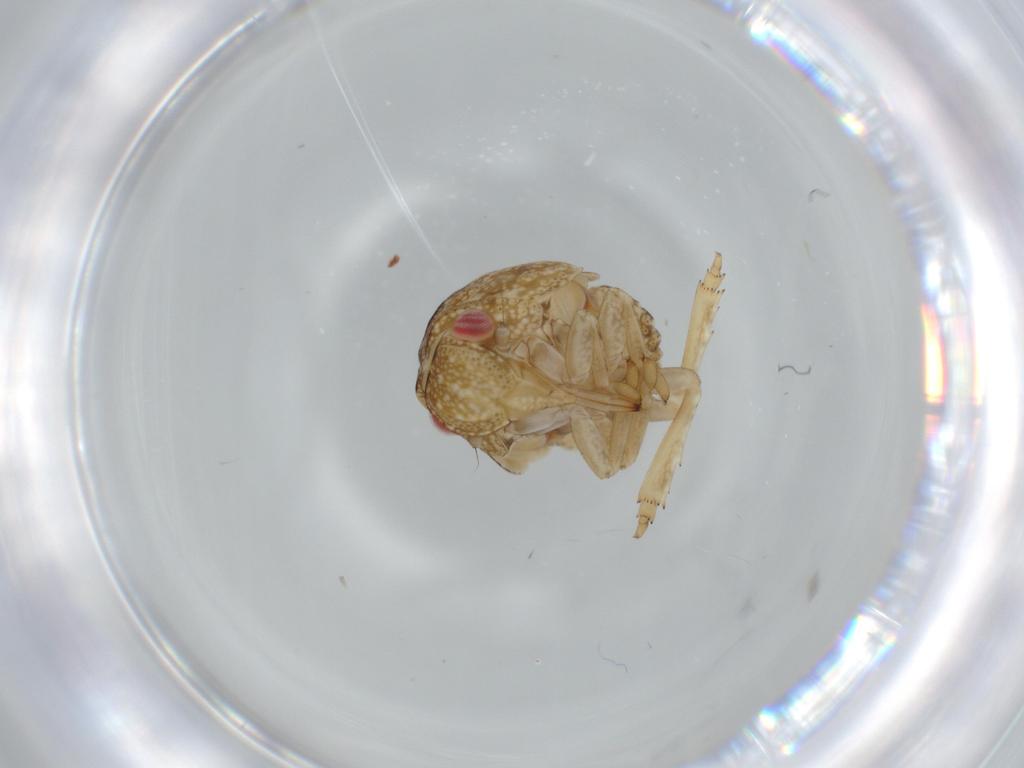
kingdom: Animalia
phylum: Arthropoda
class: Insecta
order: Hemiptera
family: Acanaloniidae
